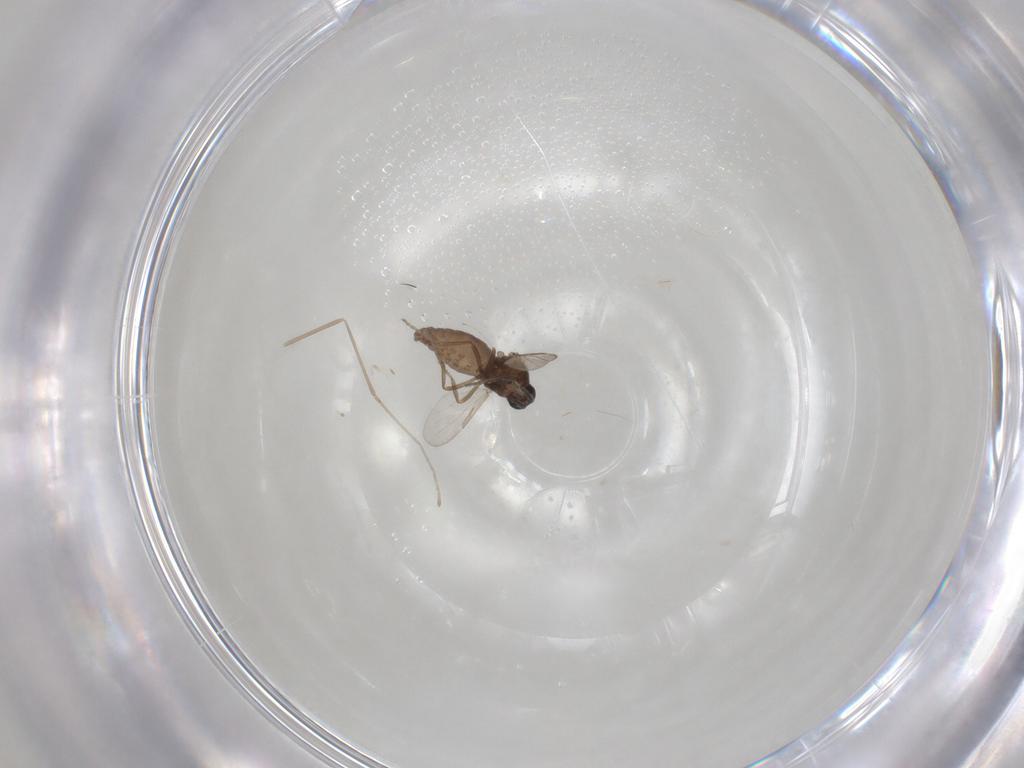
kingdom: Animalia
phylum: Arthropoda
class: Insecta
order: Diptera
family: Ceratopogonidae
